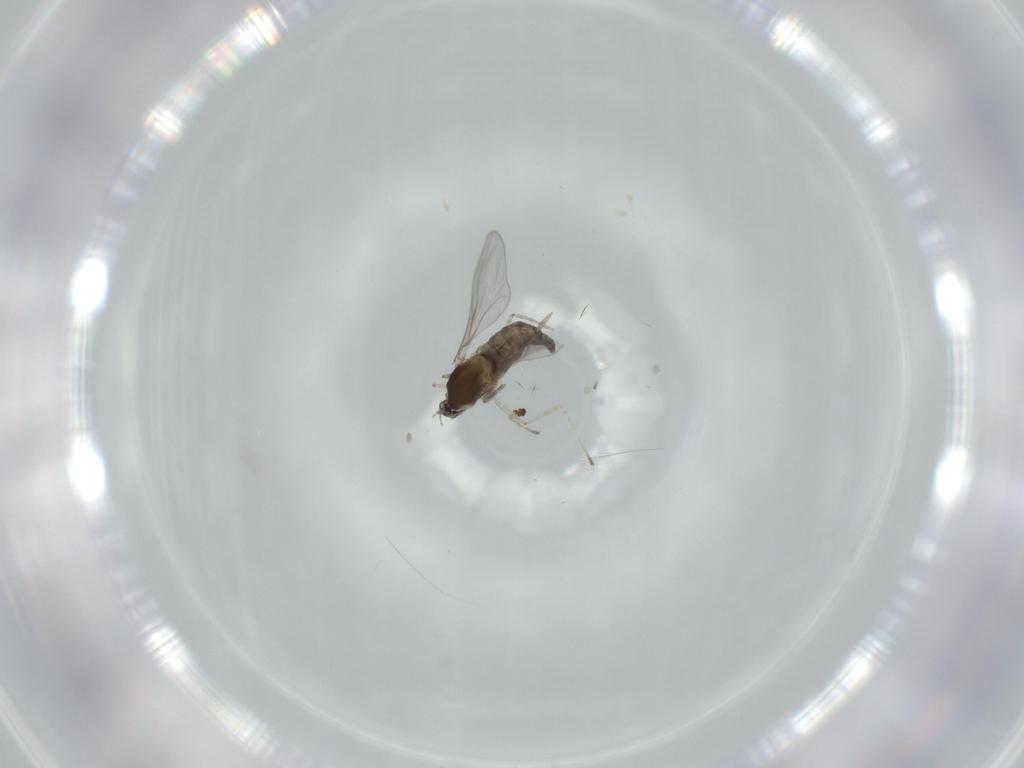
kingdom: Animalia
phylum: Arthropoda
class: Insecta
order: Diptera
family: Cecidomyiidae
